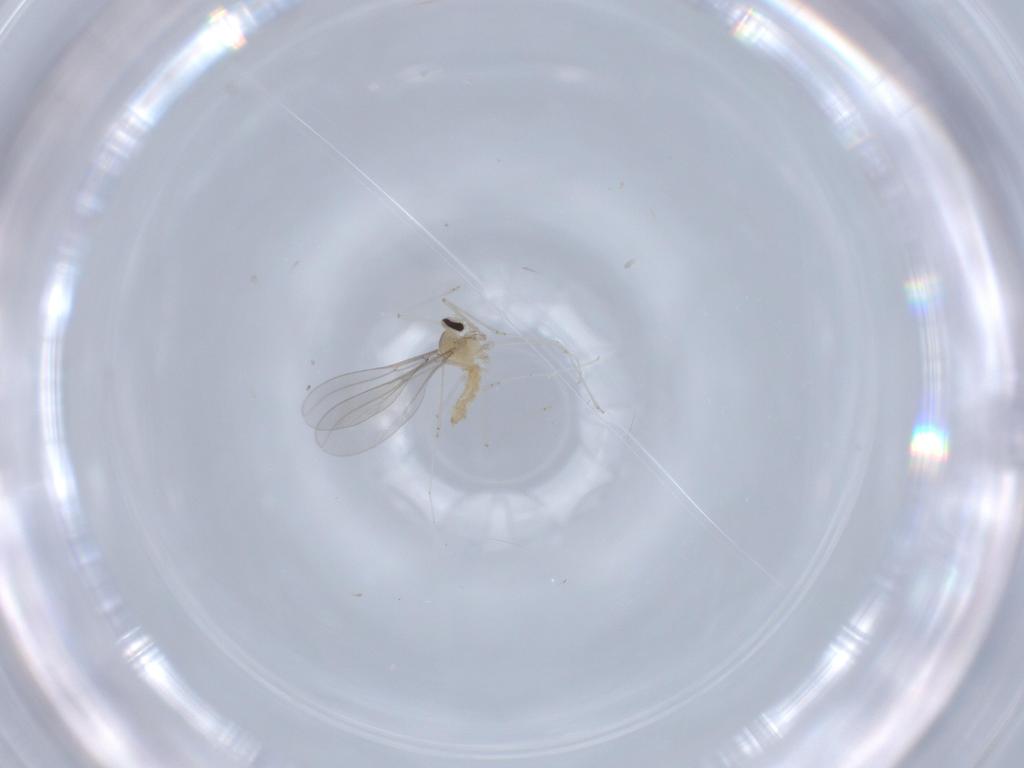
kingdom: Animalia
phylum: Arthropoda
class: Insecta
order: Diptera
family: Cecidomyiidae
